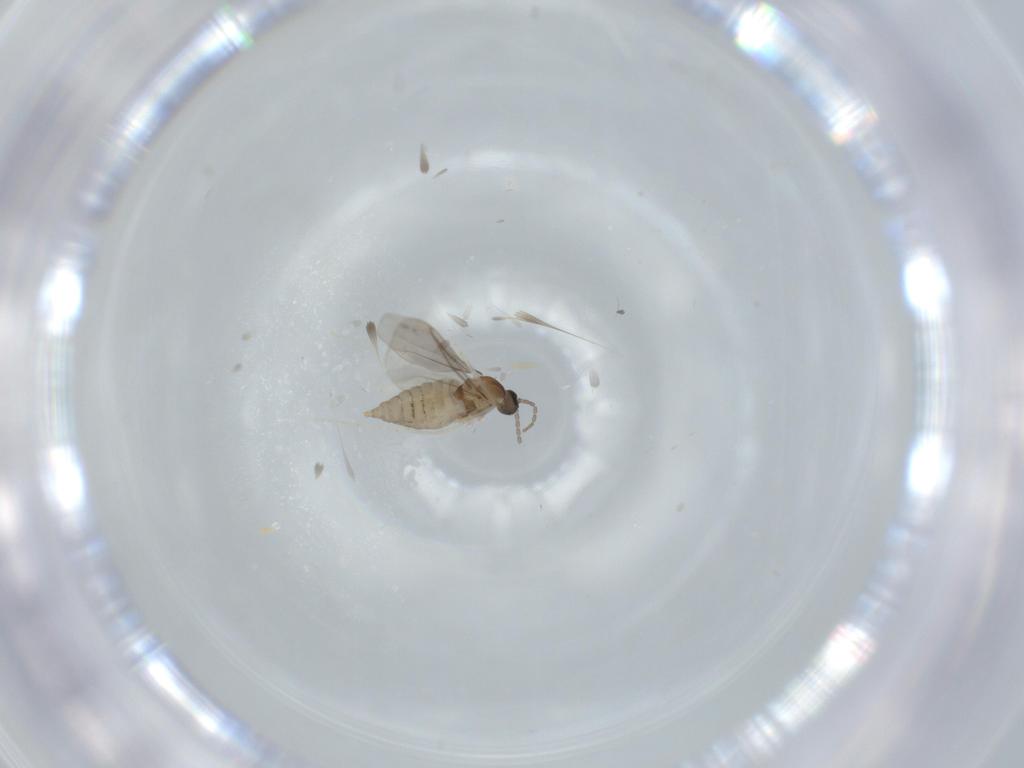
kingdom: Animalia
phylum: Arthropoda
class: Insecta
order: Diptera
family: Cecidomyiidae
